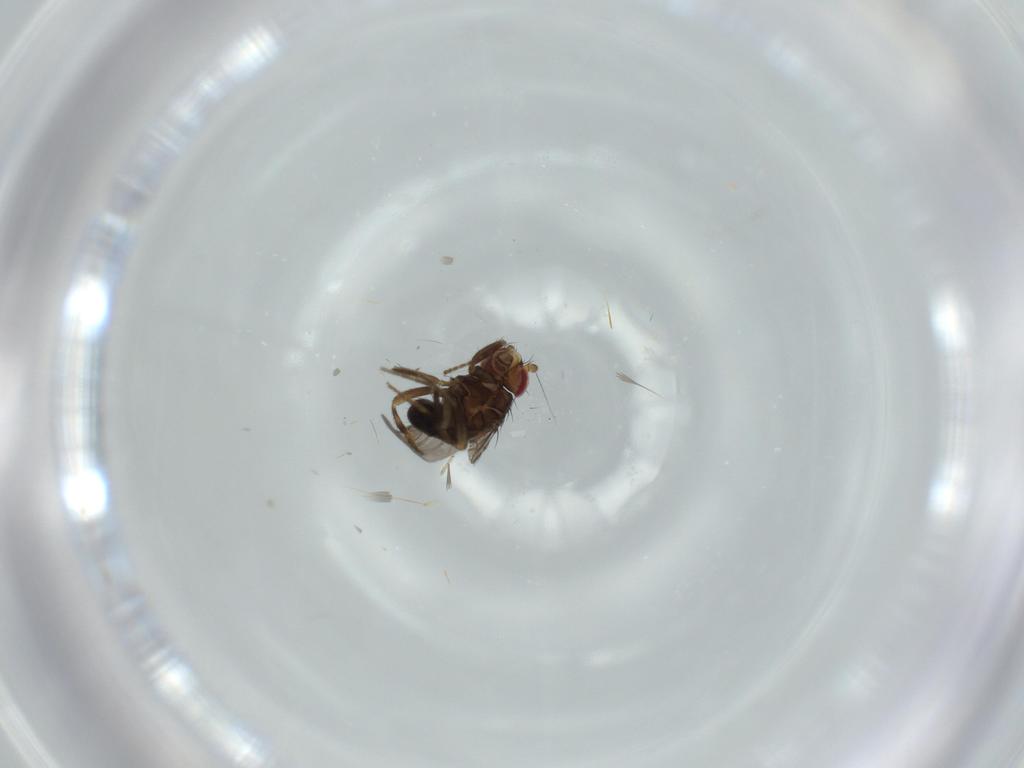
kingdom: Animalia
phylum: Arthropoda
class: Insecta
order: Diptera
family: Sphaeroceridae
